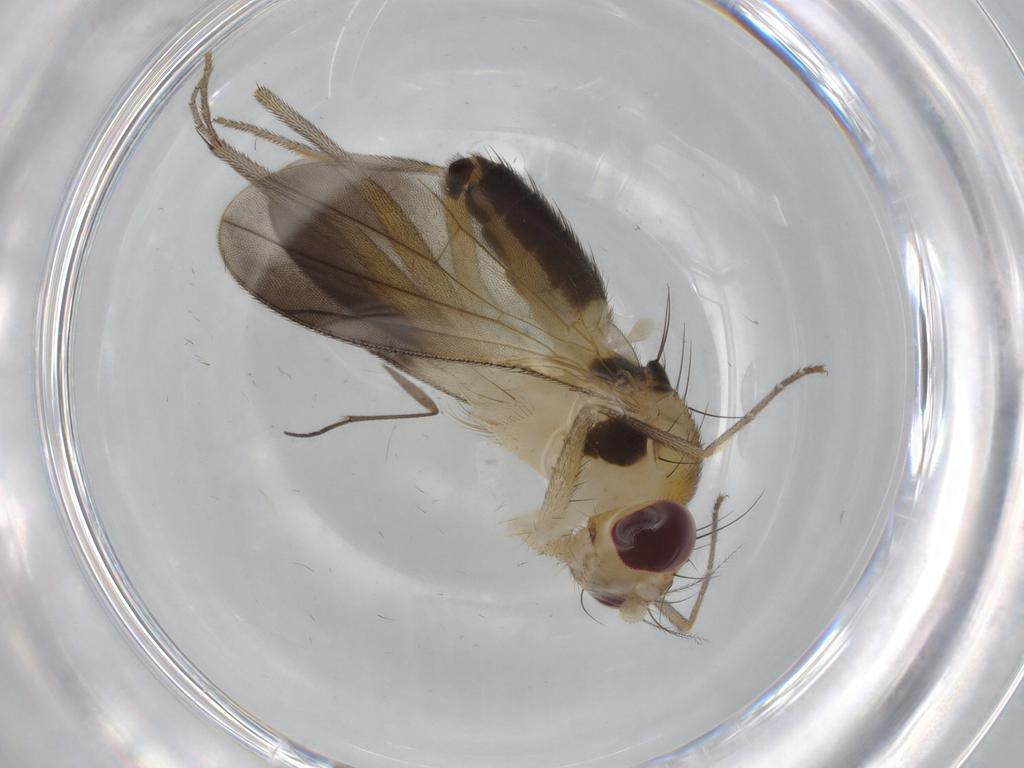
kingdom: Animalia
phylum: Arthropoda
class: Insecta
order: Diptera
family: Clusiidae
